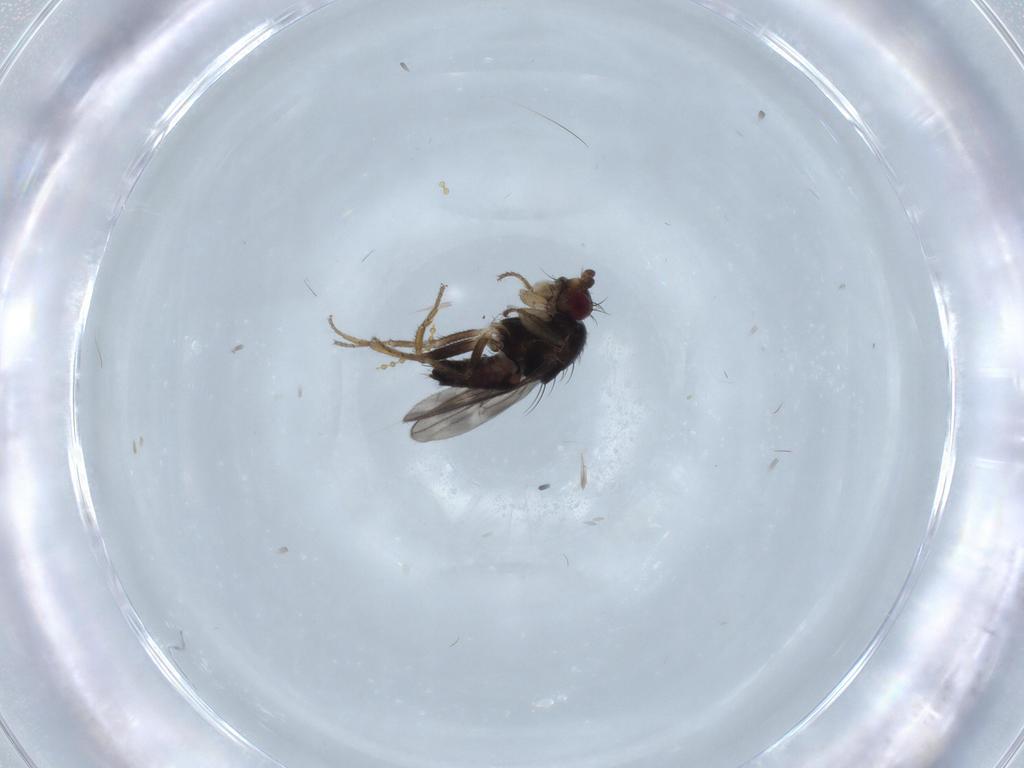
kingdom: Animalia
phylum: Arthropoda
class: Insecta
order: Diptera
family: Sphaeroceridae
